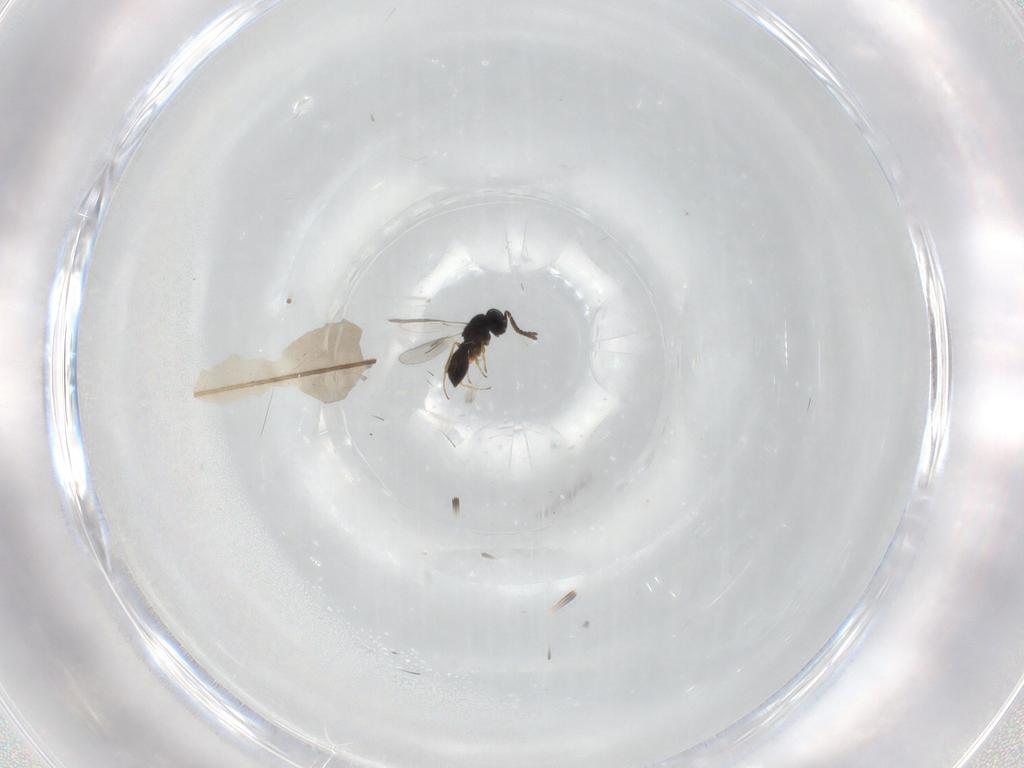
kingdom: Animalia
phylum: Arthropoda
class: Insecta
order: Hymenoptera
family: Scelionidae
